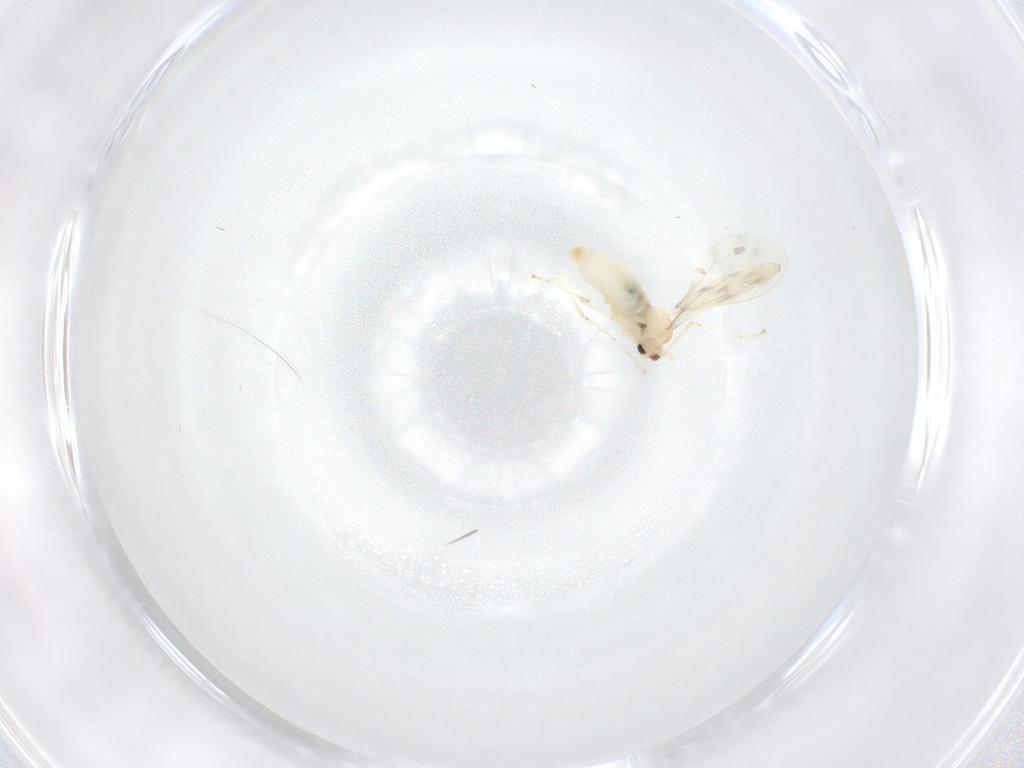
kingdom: Animalia
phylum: Arthropoda
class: Insecta
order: Diptera
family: Cecidomyiidae
